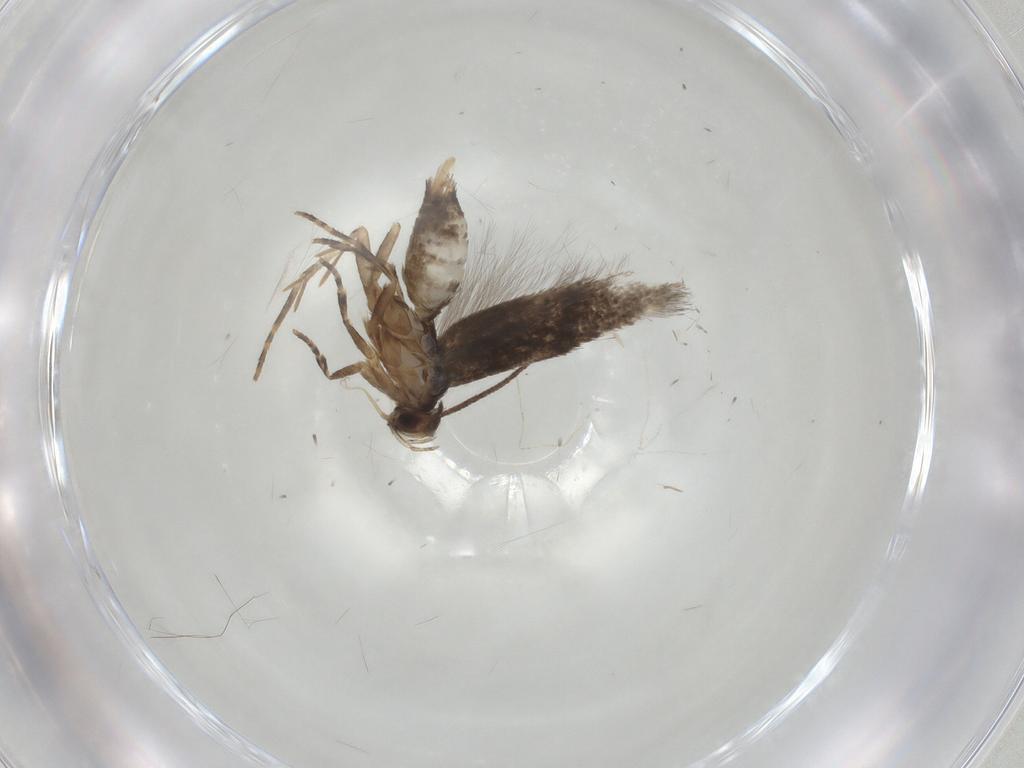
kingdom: Animalia
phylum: Arthropoda
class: Insecta
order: Lepidoptera
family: Elachistidae
